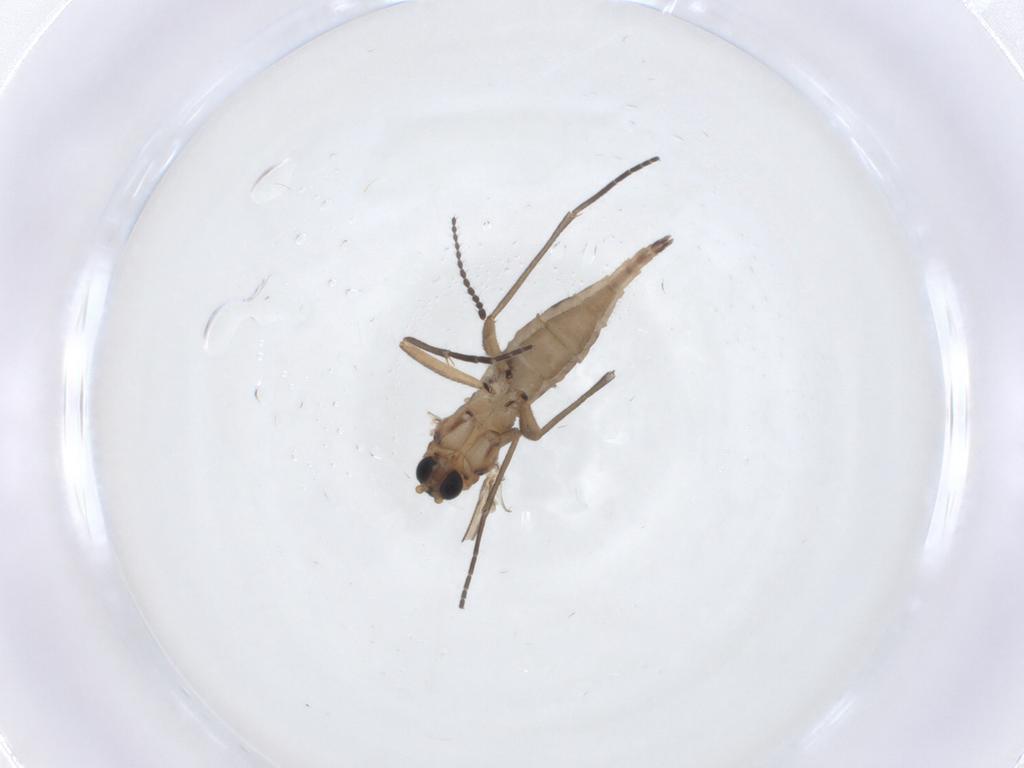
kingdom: Animalia
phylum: Arthropoda
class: Insecta
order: Diptera
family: Sciaridae
